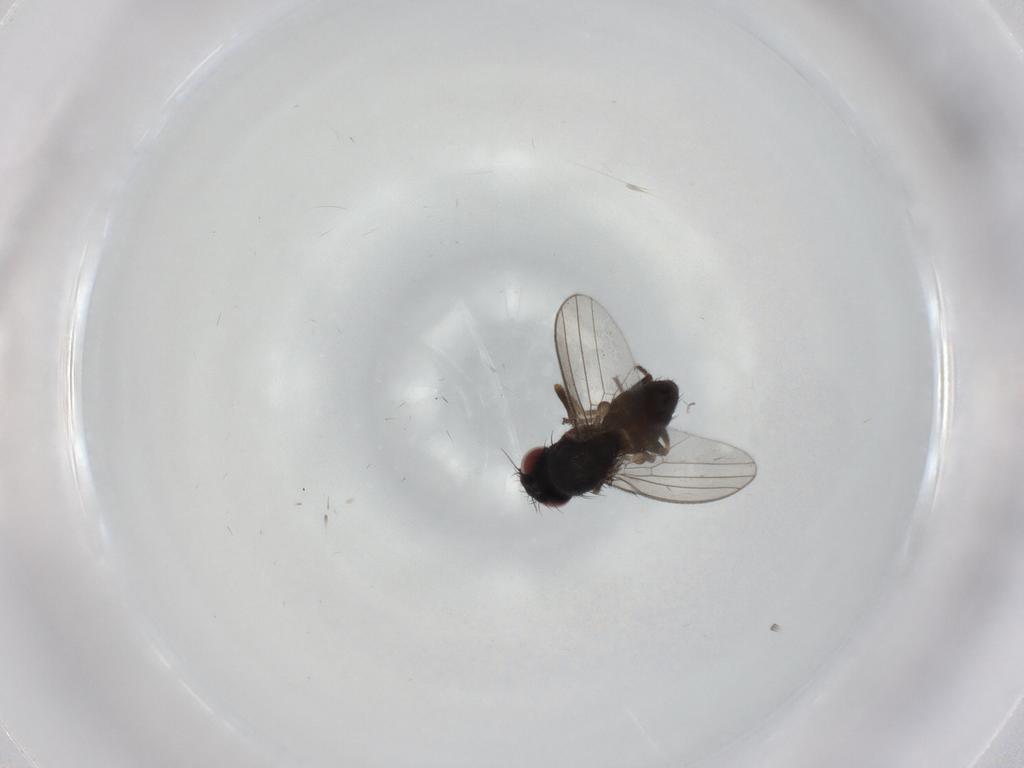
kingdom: Animalia
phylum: Arthropoda
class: Insecta
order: Diptera
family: Milichiidae
